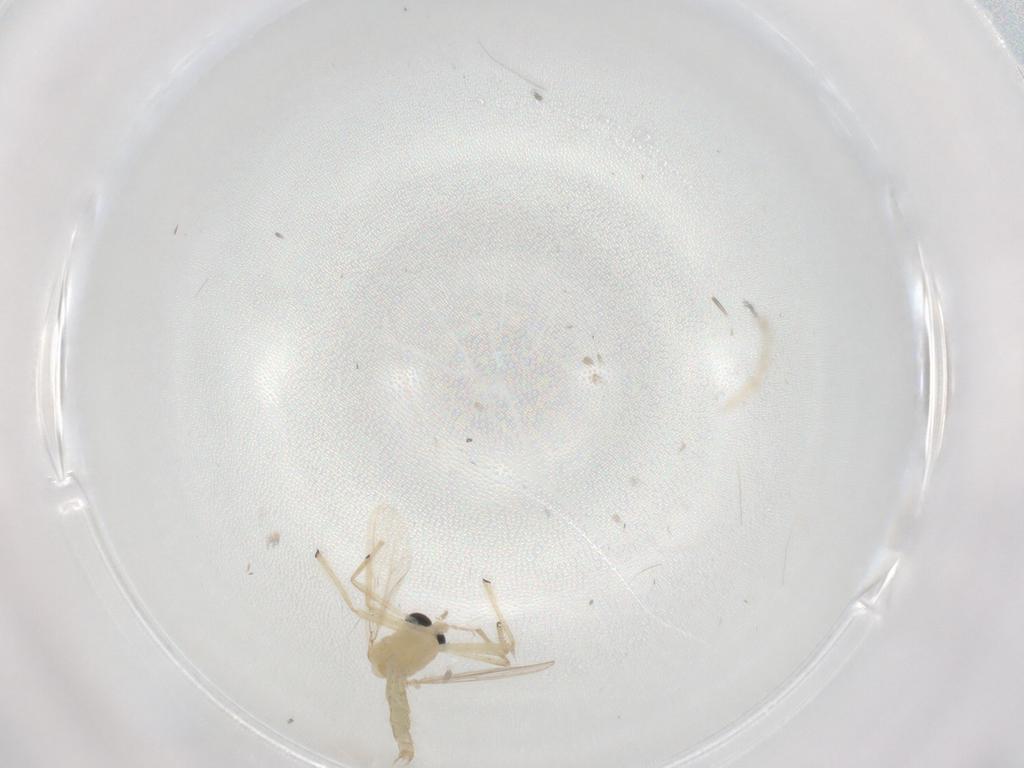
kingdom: Animalia
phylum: Arthropoda
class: Insecta
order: Diptera
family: Chironomidae
